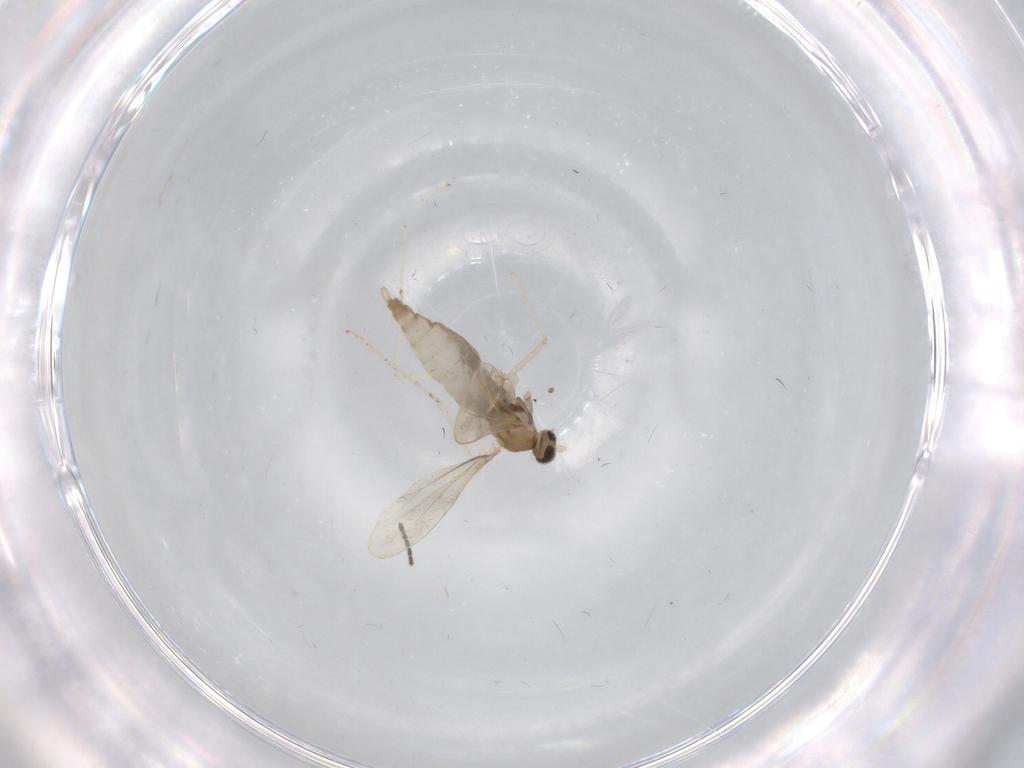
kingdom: Animalia
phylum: Arthropoda
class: Insecta
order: Diptera
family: Cecidomyiidae
